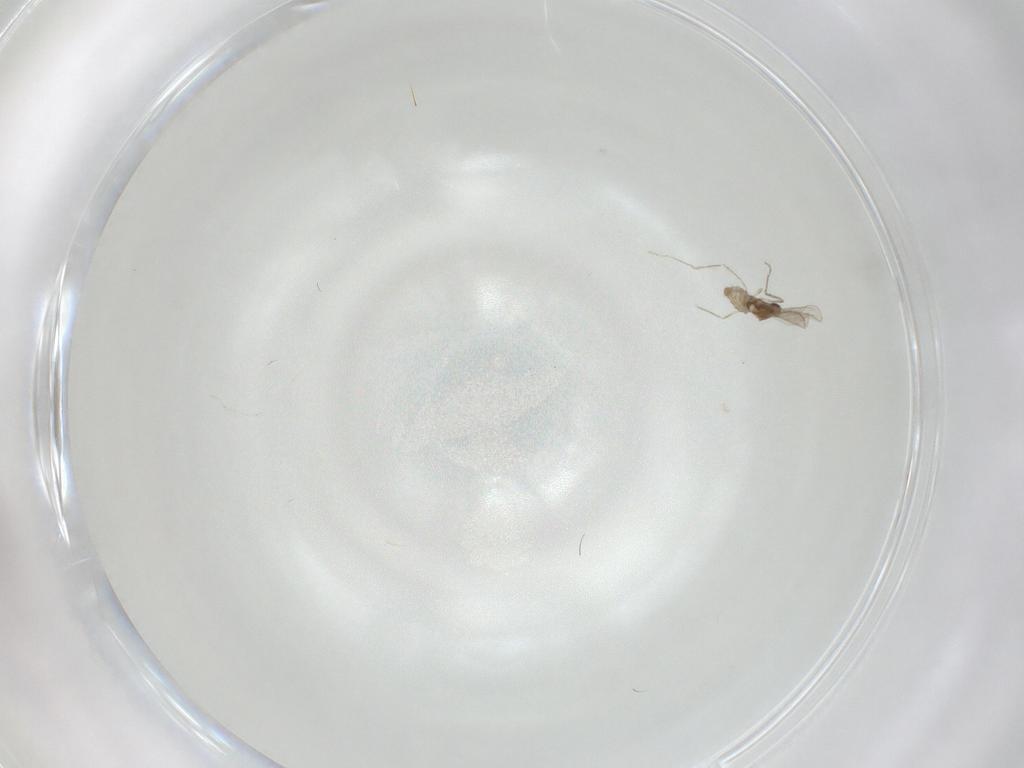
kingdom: Animalia
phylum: Arthropoda
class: Insecta
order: Diptera
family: Cecidomyiidae
